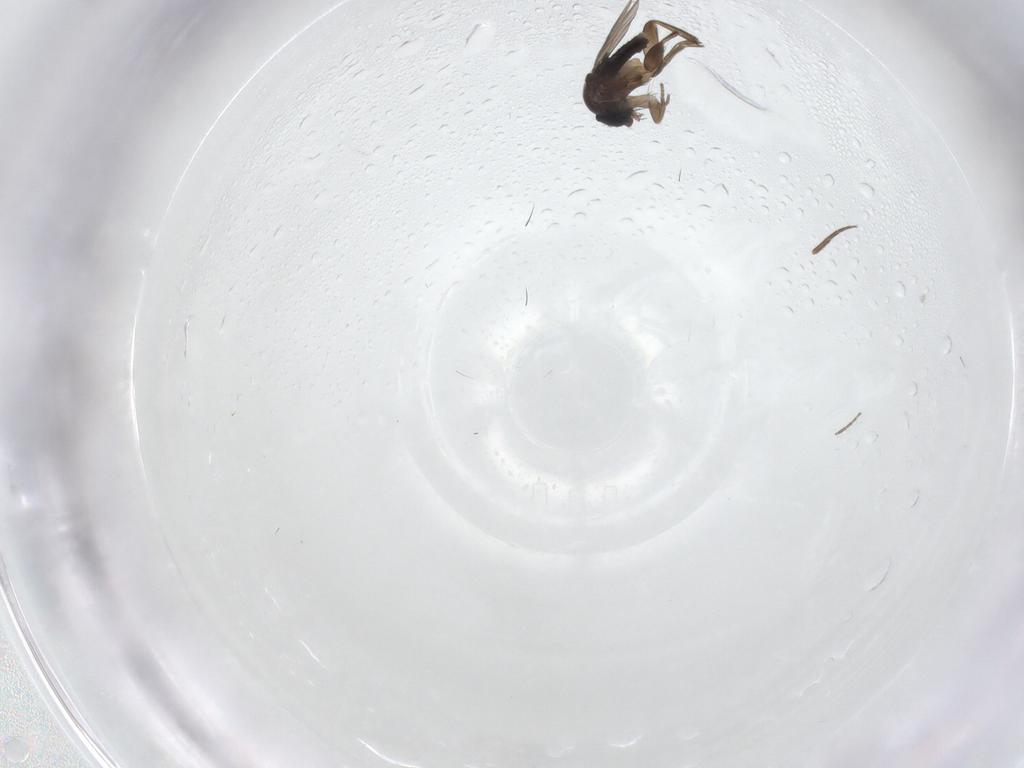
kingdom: Animalia
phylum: Arthropoda
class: Insecta
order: Diptera
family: Phoridae
